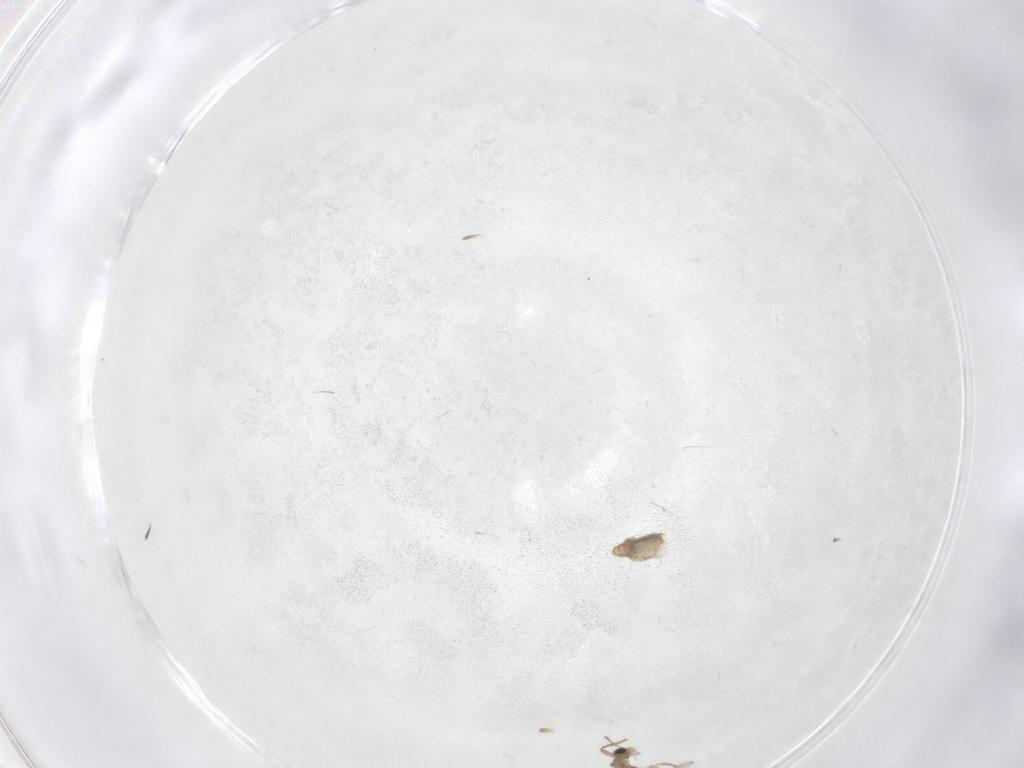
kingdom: Animalia
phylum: Arthropoda
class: Insecta
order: Diptera
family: Chironomidae
